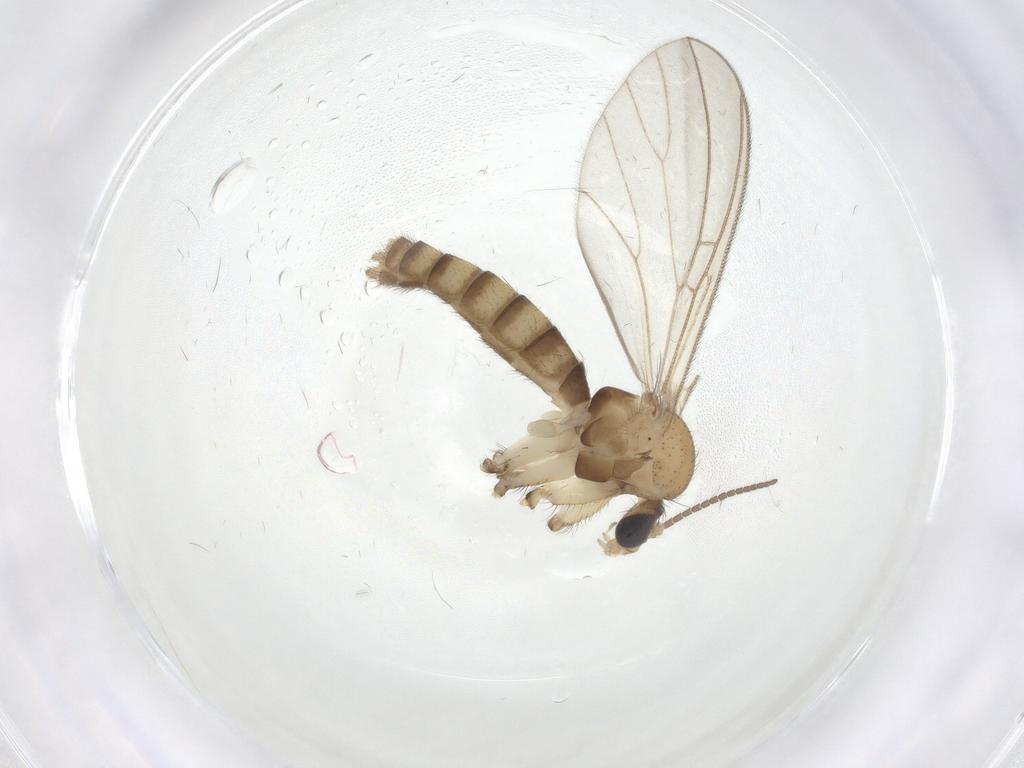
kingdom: Animalia
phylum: Arthropoda
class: Insecta
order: Diptera
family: Mycetophilidae
